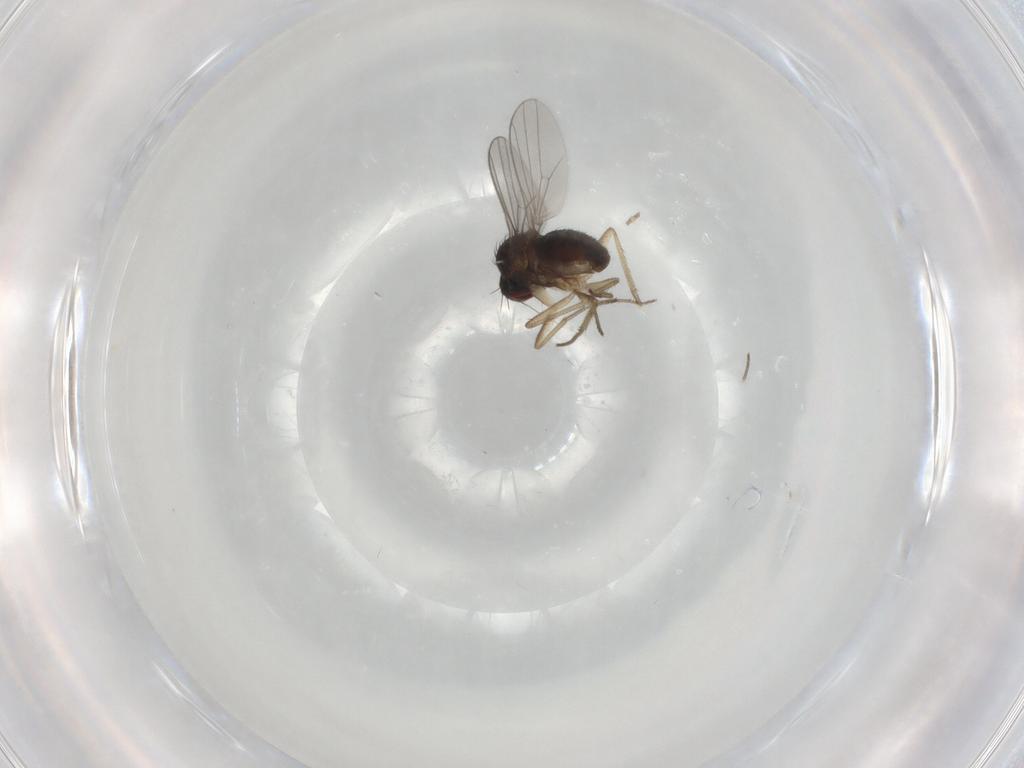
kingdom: Animalia
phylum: Arthropoda
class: Insecta
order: Diptera
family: Dolichopodidae
